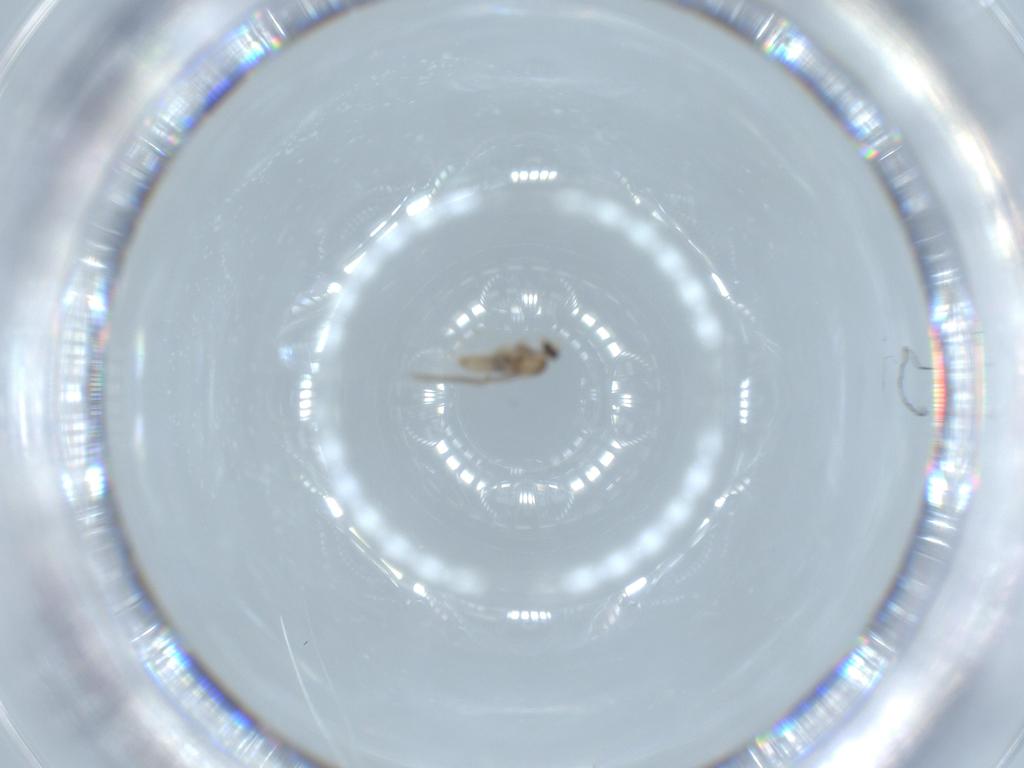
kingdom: Animalia
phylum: Arthropoda
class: Insecta
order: Diptera
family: Cecidomyiidae
